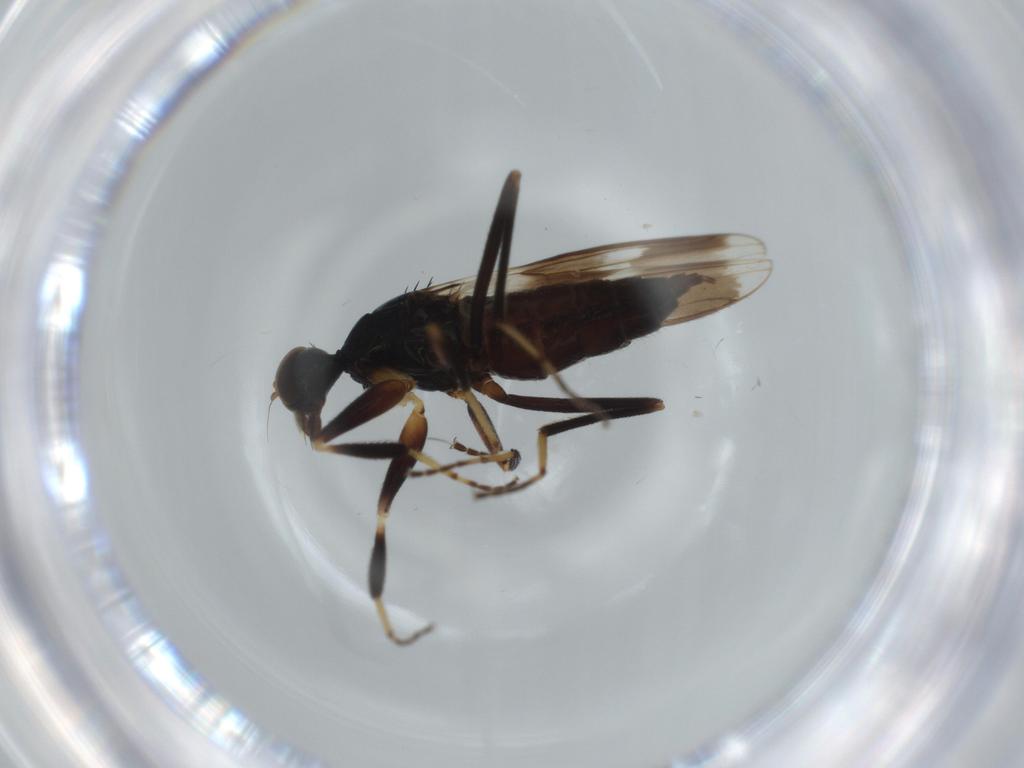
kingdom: Animalia
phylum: Arthropoda
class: Insecta
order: Diptera
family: Hybotidae
